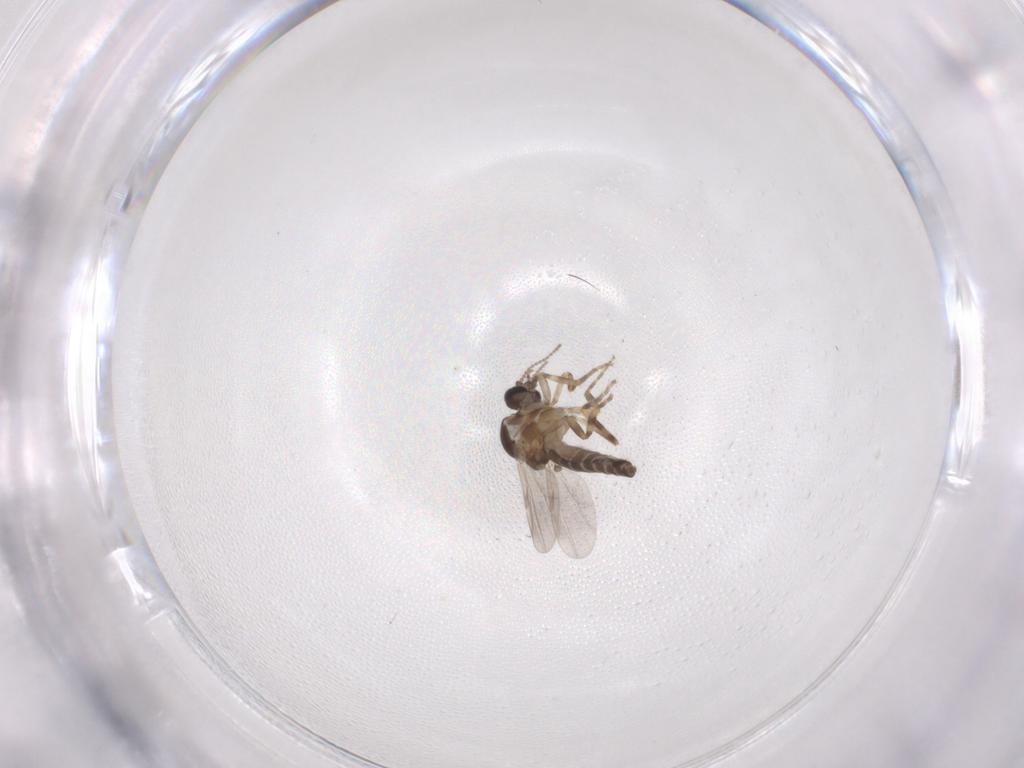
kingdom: Animalia
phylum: Arthropoda
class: Insecta
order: Diptera
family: Ceratopogonidae
